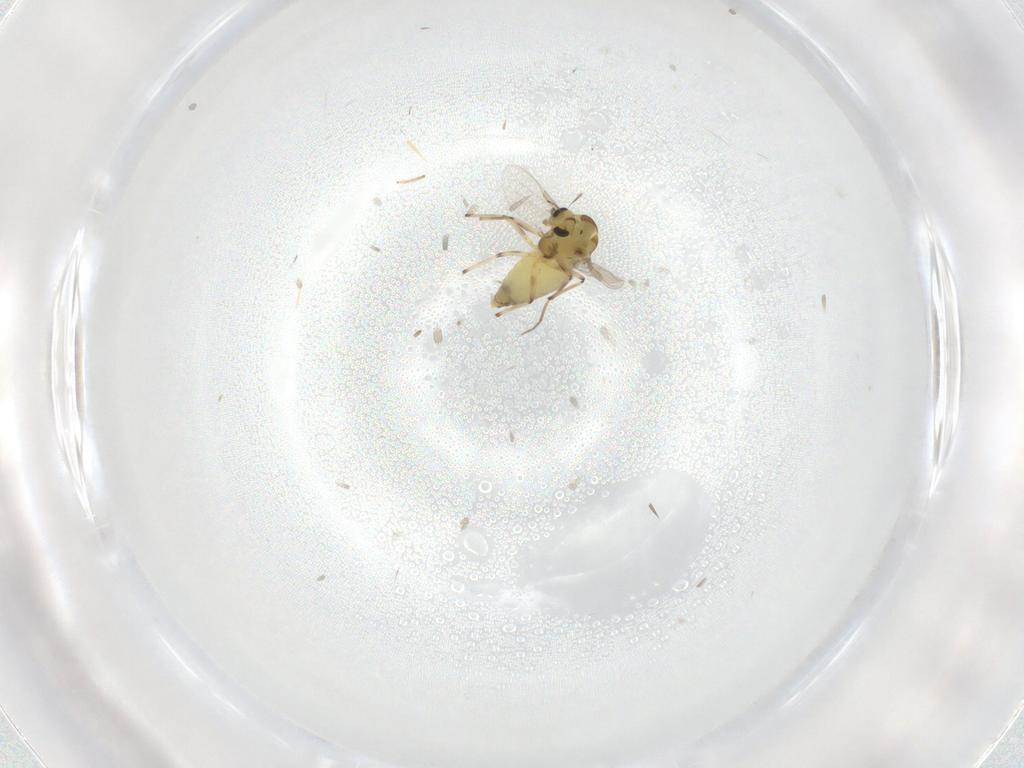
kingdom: Animalia
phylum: Arthropoda
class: Insecta
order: Diptera
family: Chironomidae
